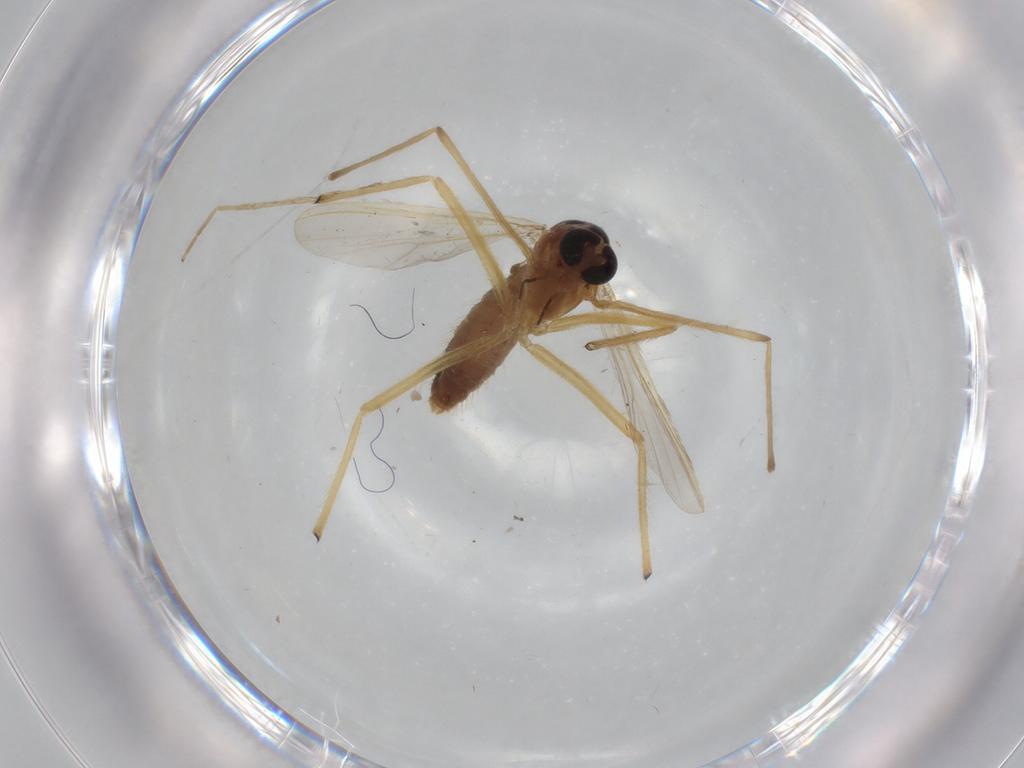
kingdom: Animalia
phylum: Arthropoda
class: Insecta
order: Diptera
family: Chironomidae
